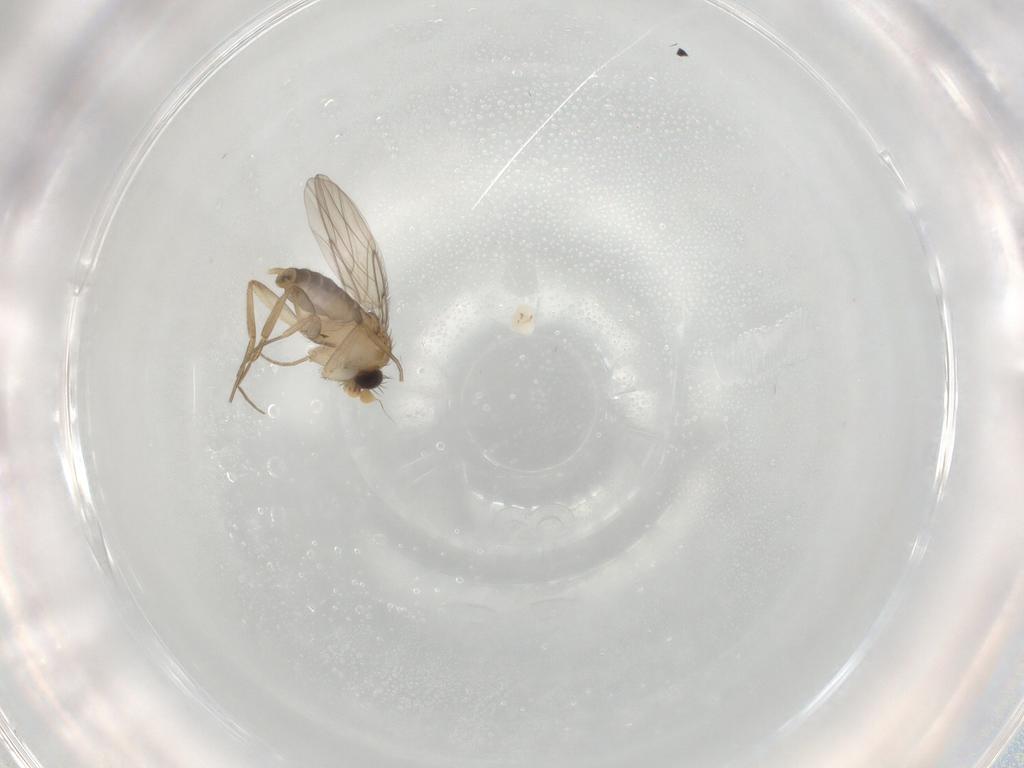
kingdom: Animalia
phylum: Arthropoda
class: Insecta
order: Diptera
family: Phoridae
